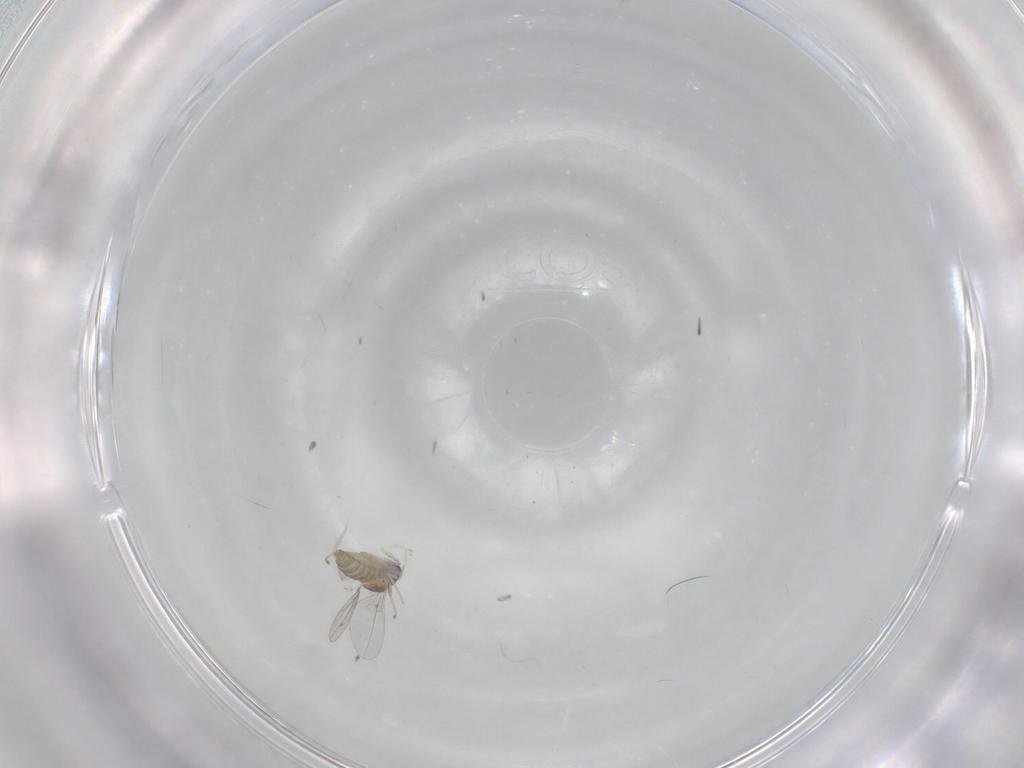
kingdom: Animalia
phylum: Arthropoda
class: Insecta
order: Diptera
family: Cecidomyiidae
